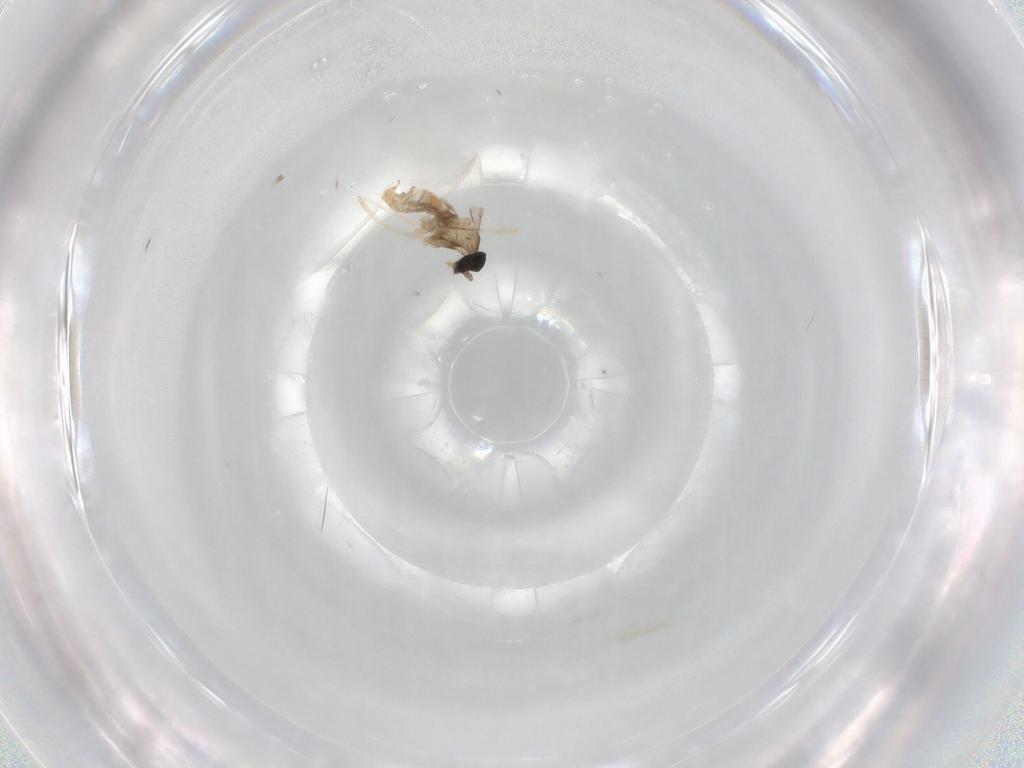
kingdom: Animalia
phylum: Arthropoda
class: Insecta
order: Diptera
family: Cecidomyiidae
